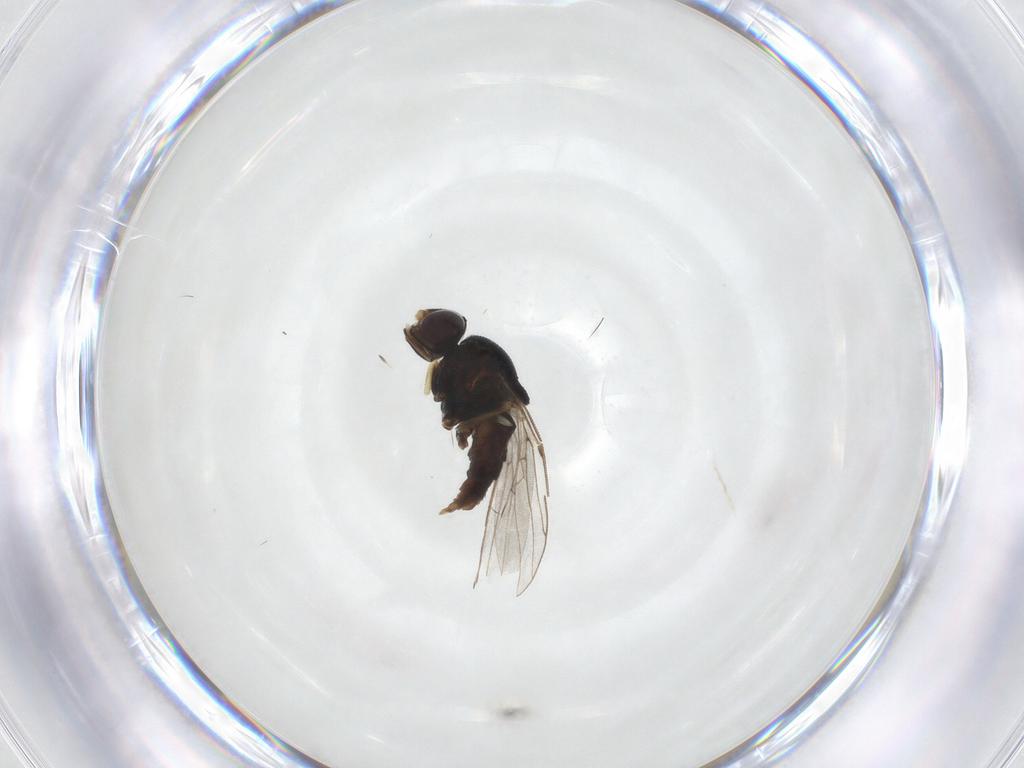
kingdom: Animalia
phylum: Arthropoda
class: Insecta
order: Diptera
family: Chloropidae
